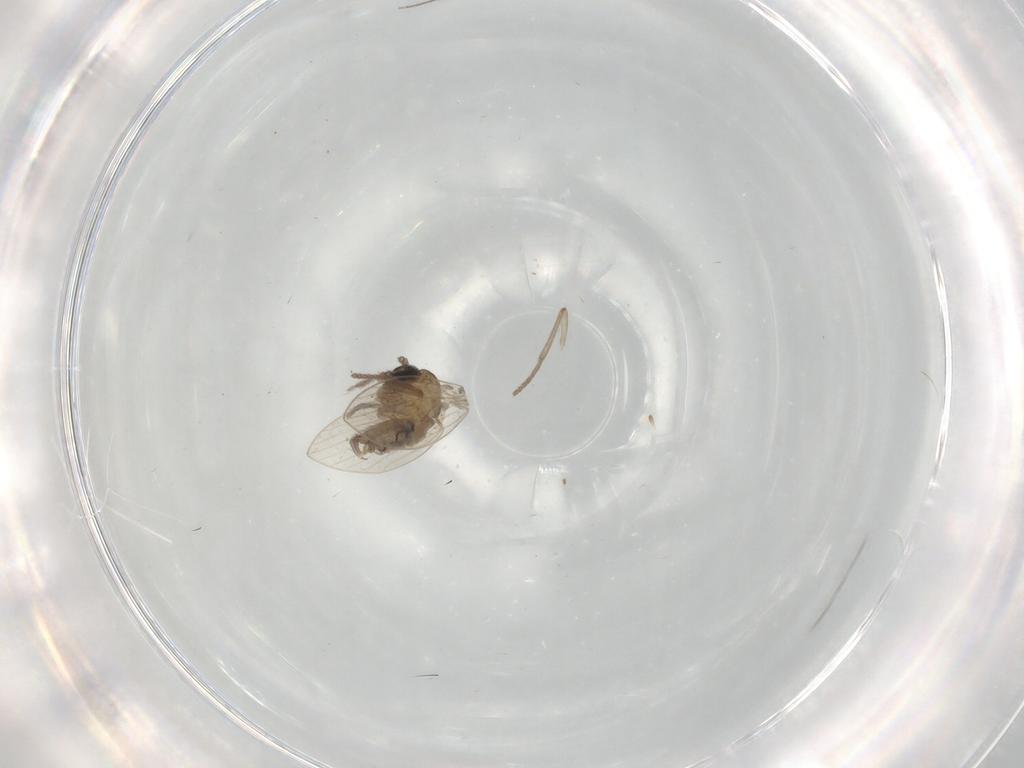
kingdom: Animalia
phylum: Arthropoda
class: Insecta
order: Diptera
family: Psychodidae
